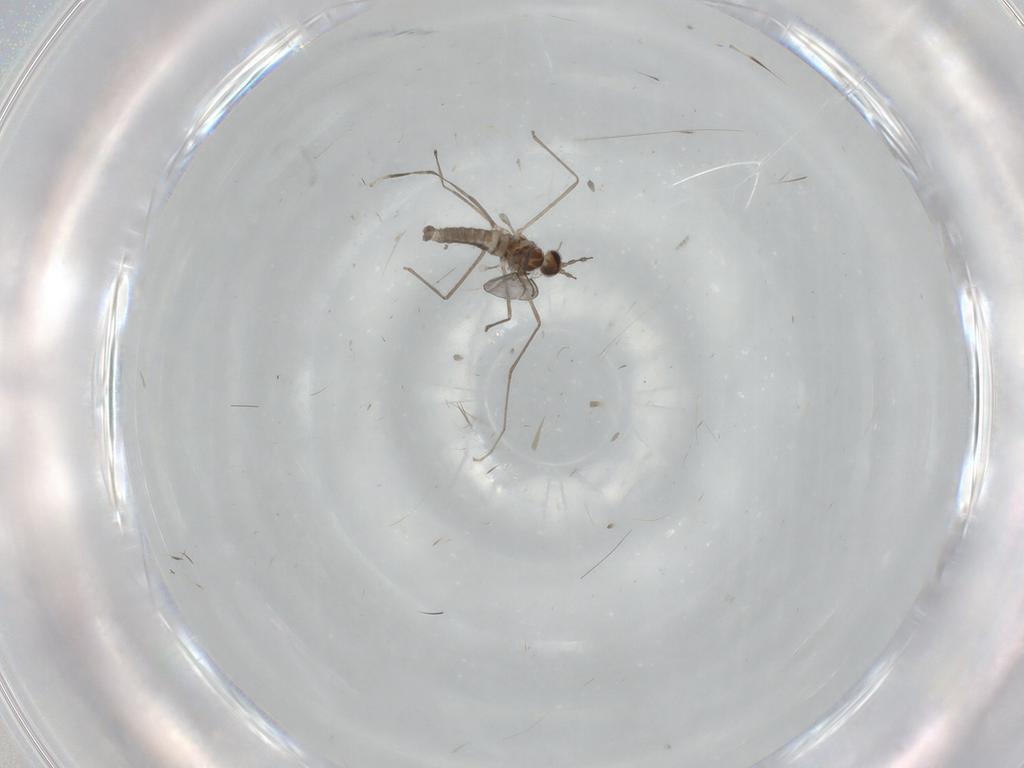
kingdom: Animalia
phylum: Arthropoda
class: Insecta
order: Diptera
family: Cecidomyiidae
